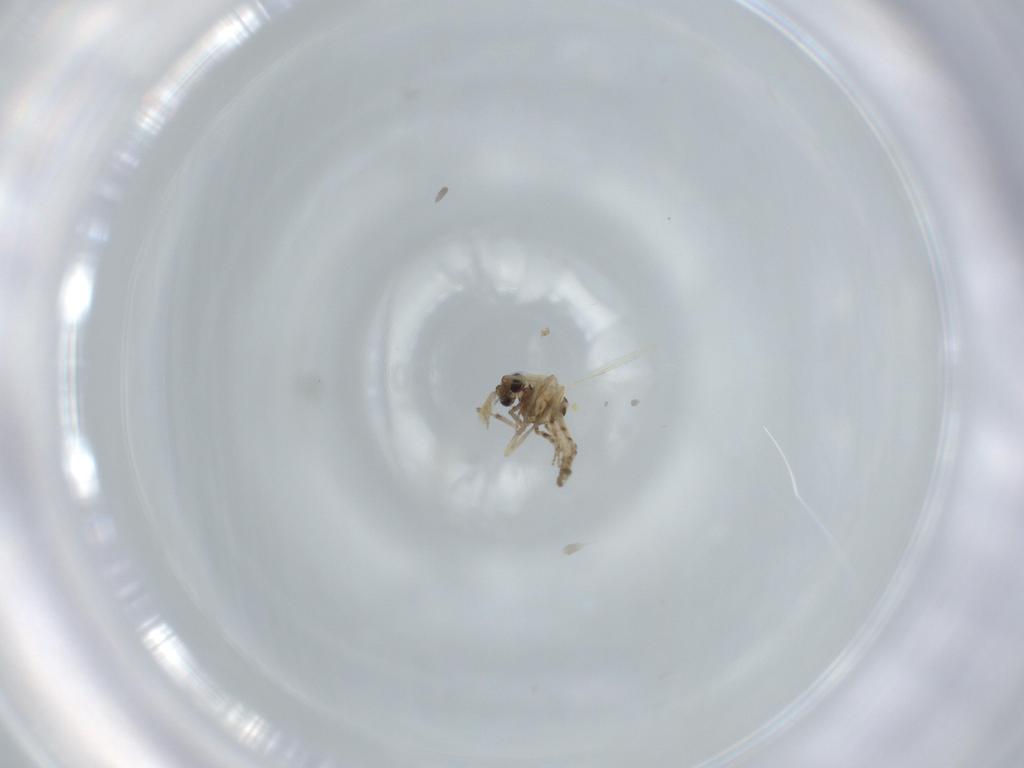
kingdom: Animalia
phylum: Arthropoda
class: Insecta
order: Diptera
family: Ceratopogonidae
